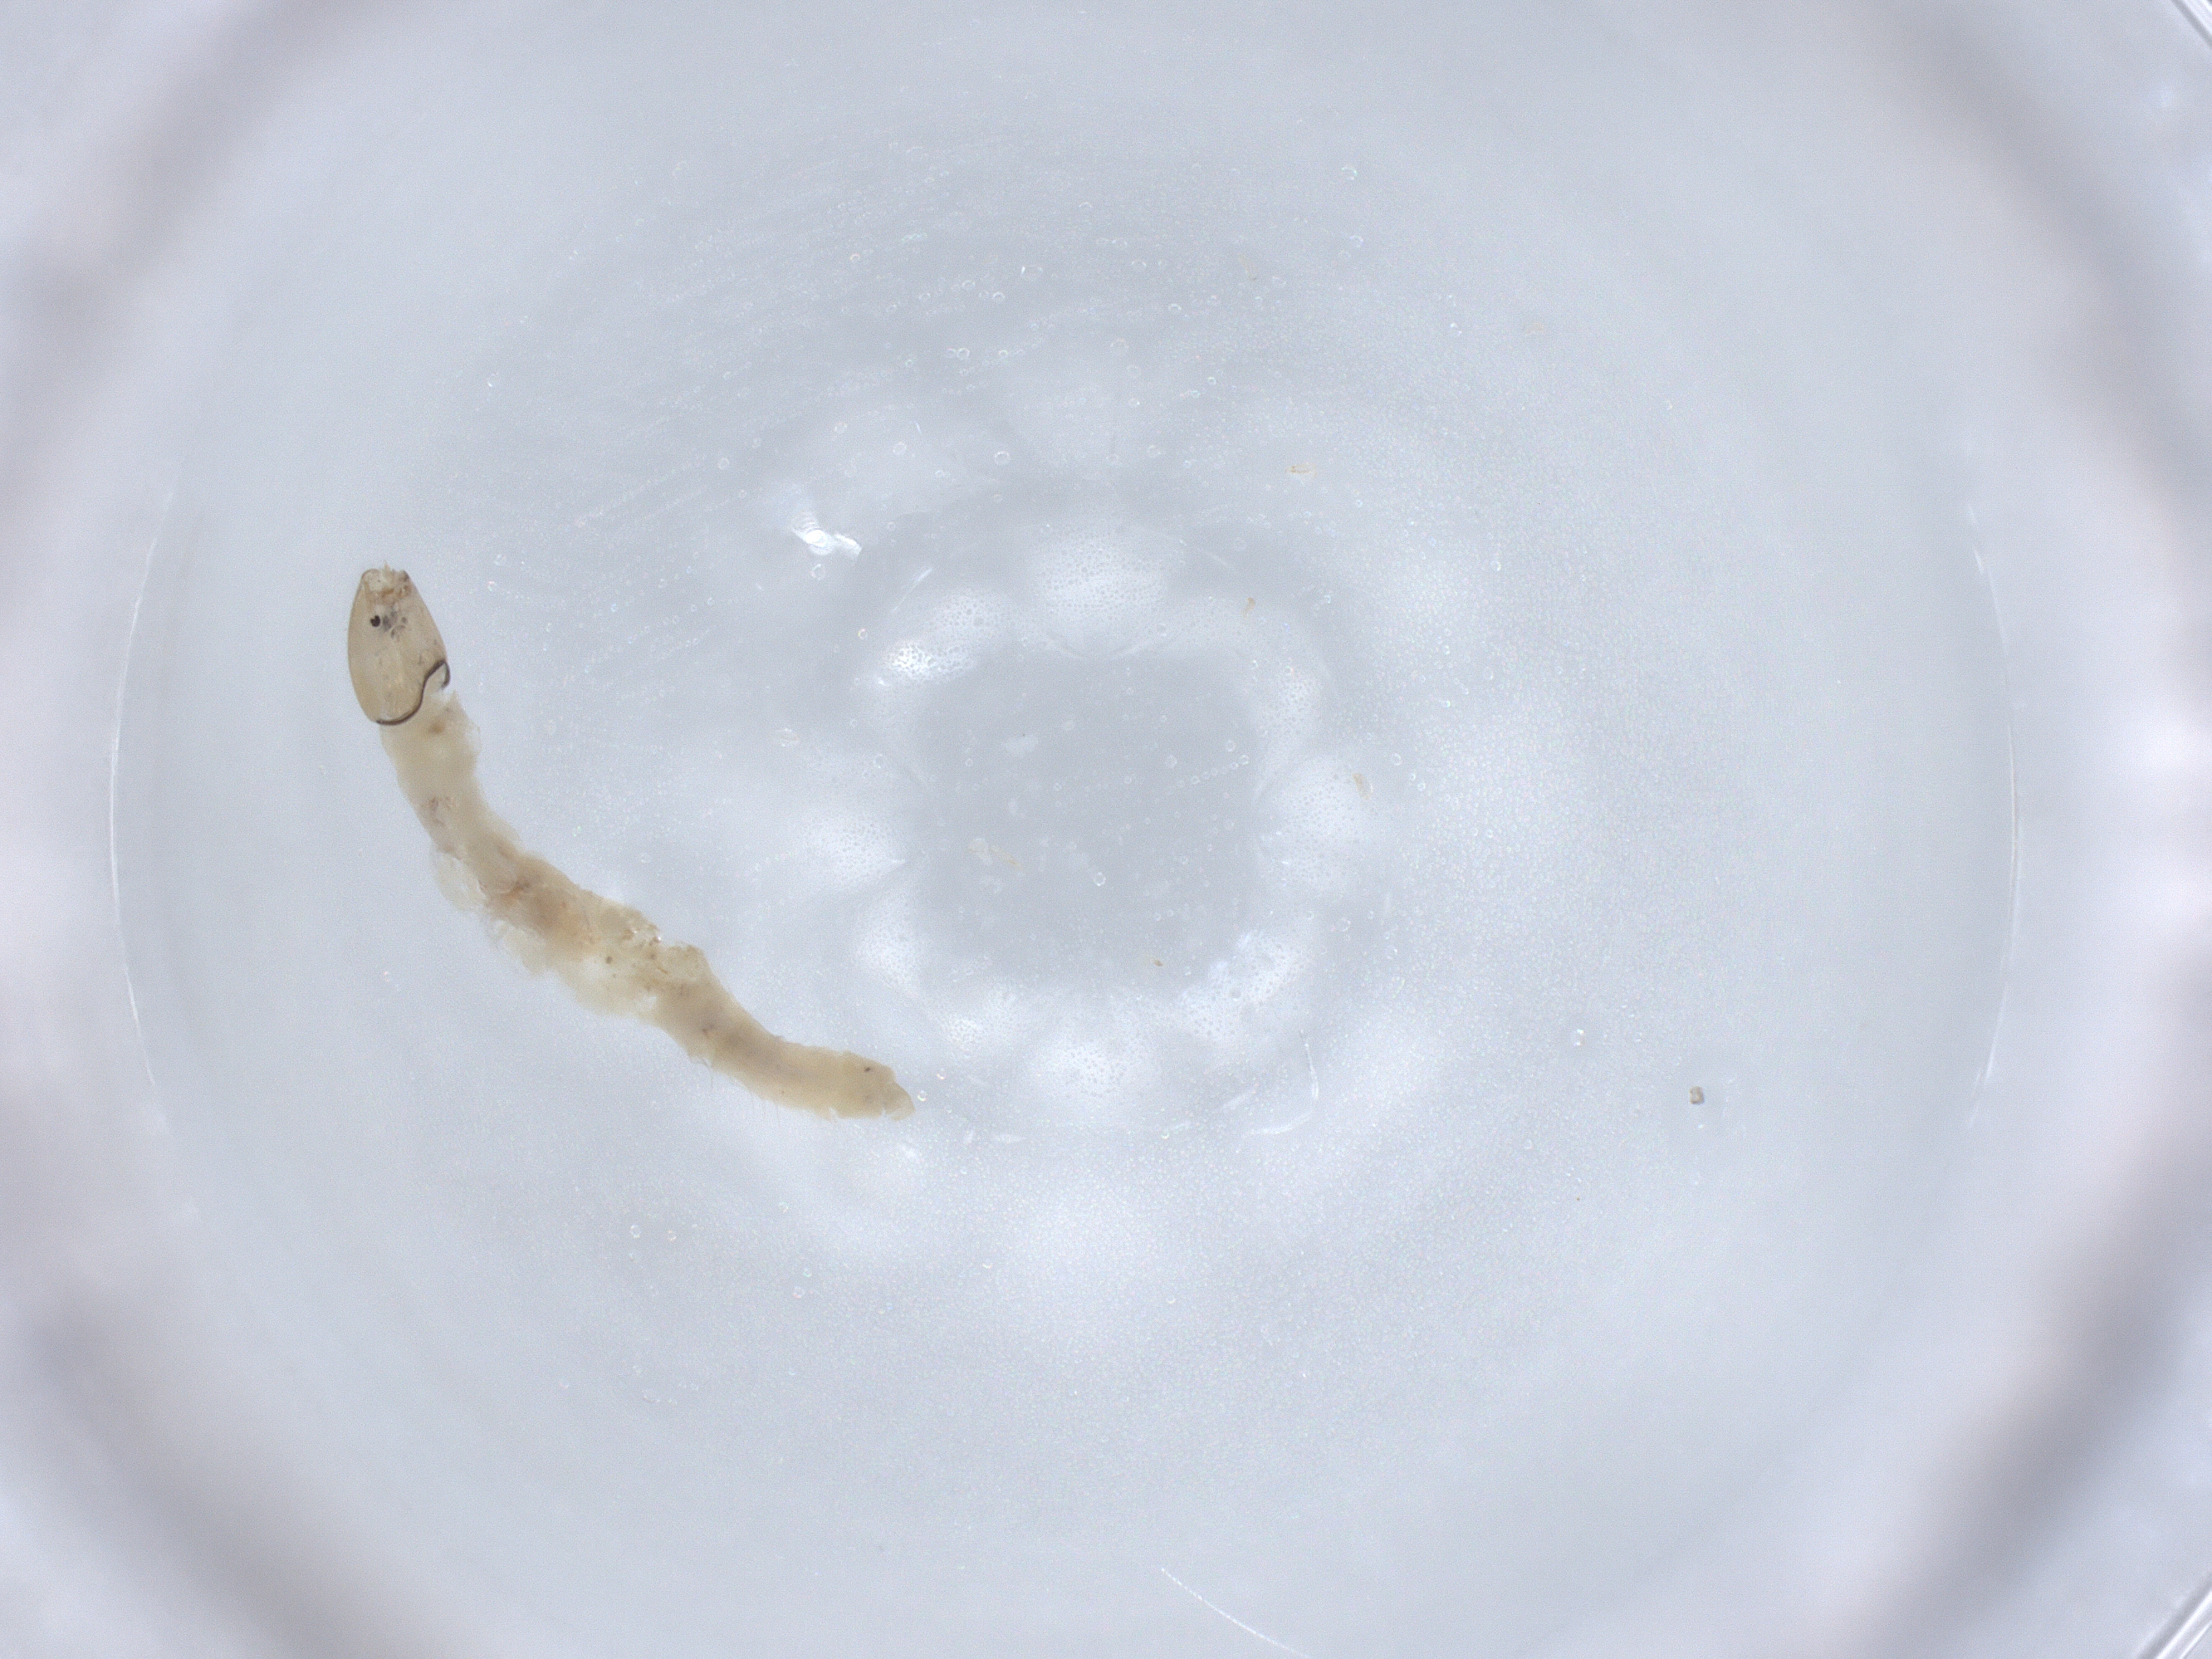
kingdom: Animalia
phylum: Arthropoda
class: Insecta
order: Diptera
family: Chironomidae
